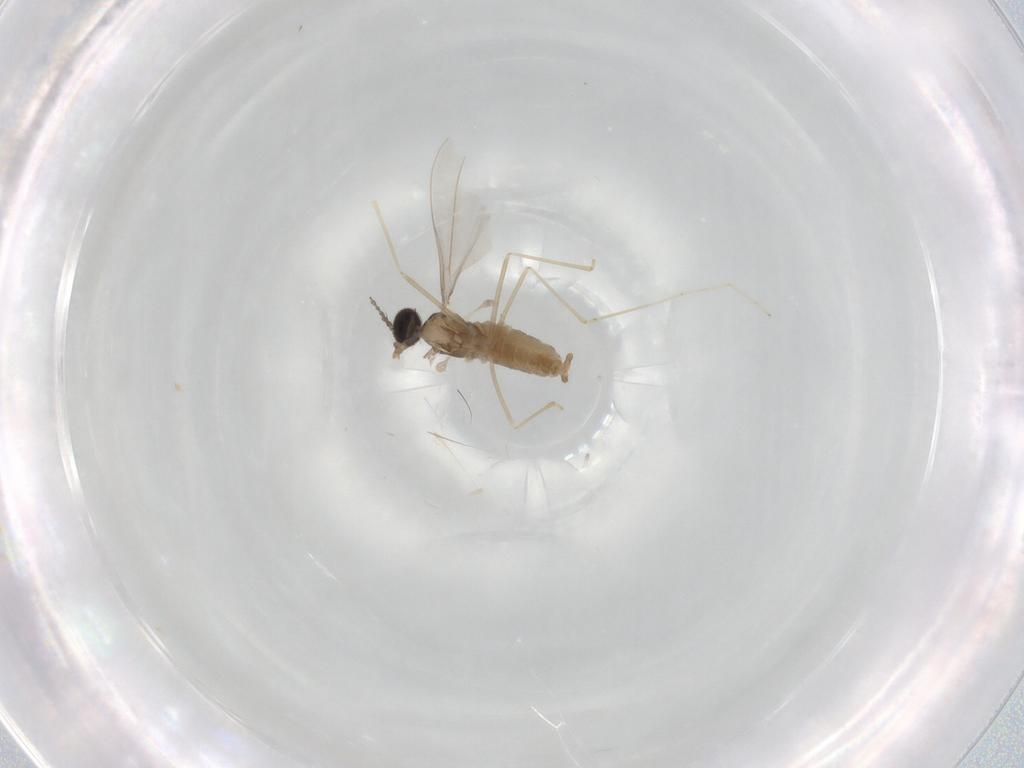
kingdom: Animalia
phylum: Arthropoda
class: Insecta
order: Diptera
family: Cecidomyiidae
